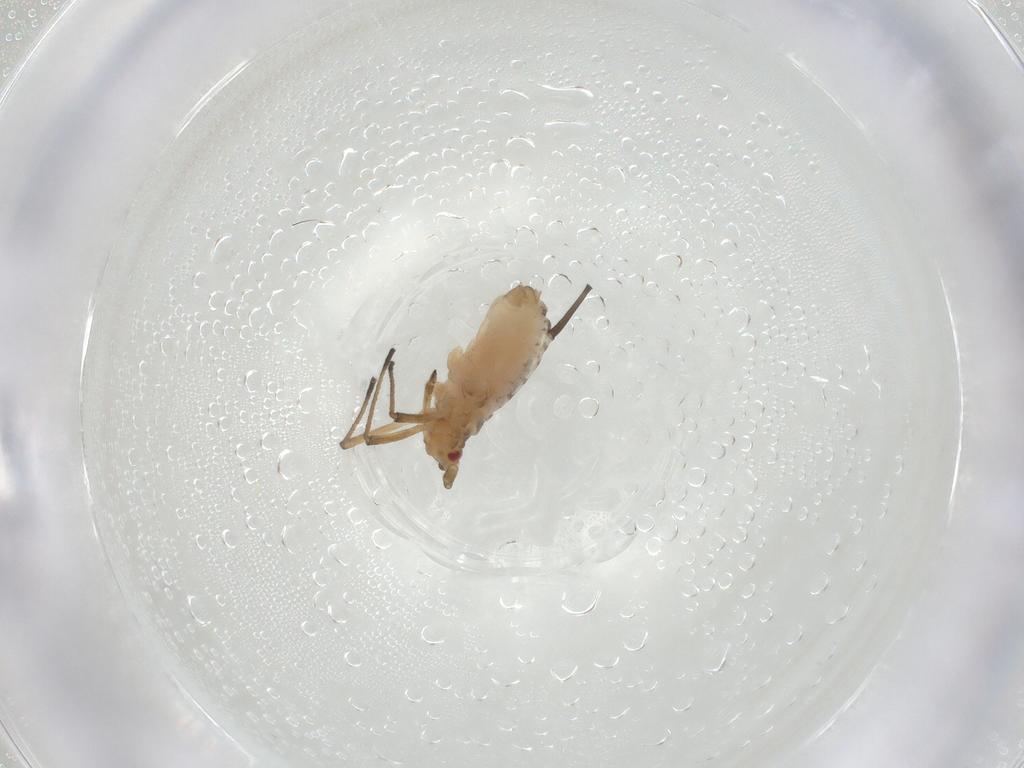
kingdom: Animalia
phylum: Arthropoda
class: Insecta
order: Hemiptera
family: Aphididae
